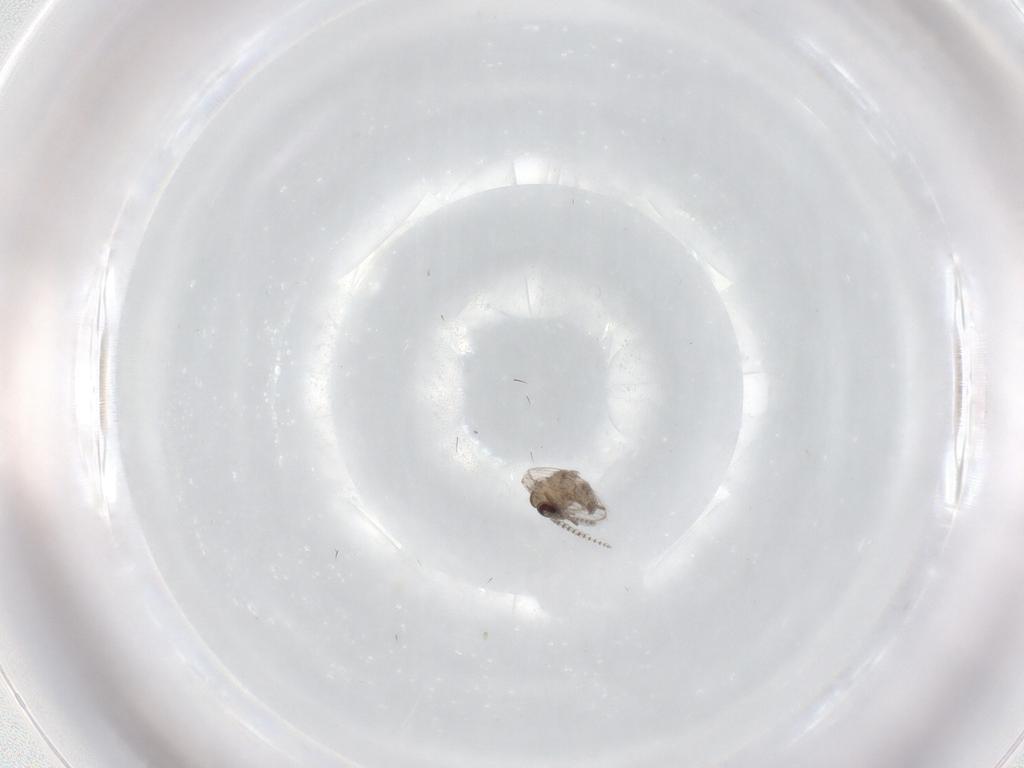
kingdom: Animalia
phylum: Arthropoda
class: Insecta
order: Diptera
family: Psychodidae
